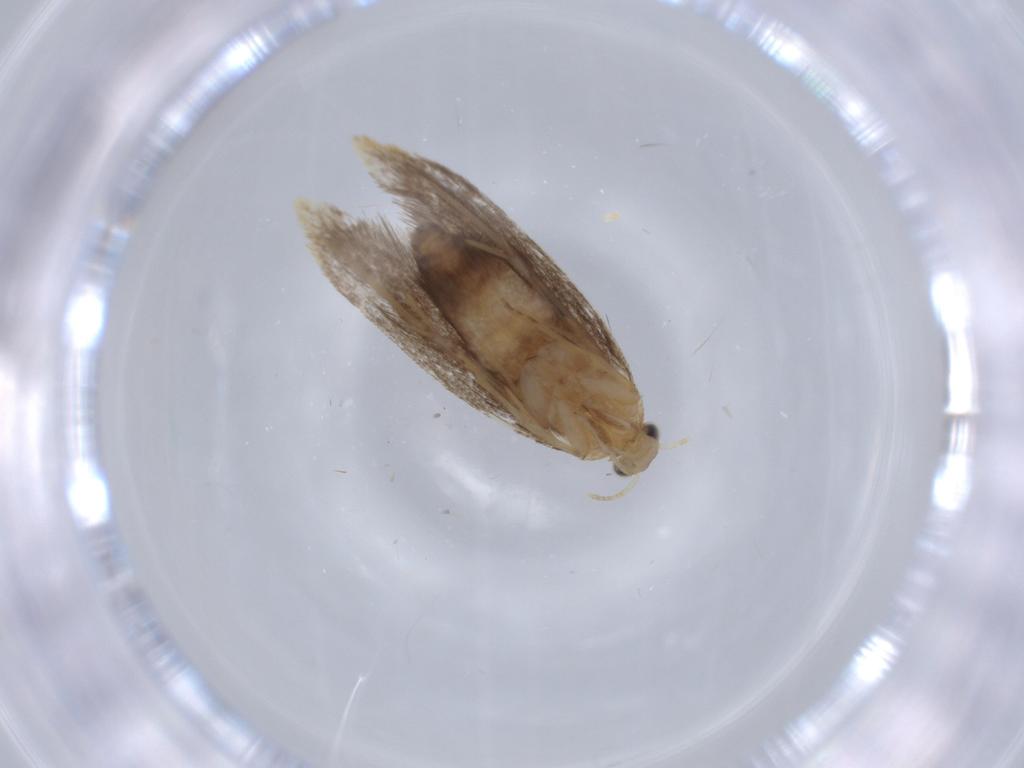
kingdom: Animalia
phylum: Arthropoda
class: Insecta
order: Lepidoptera
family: Dryadaulidae
